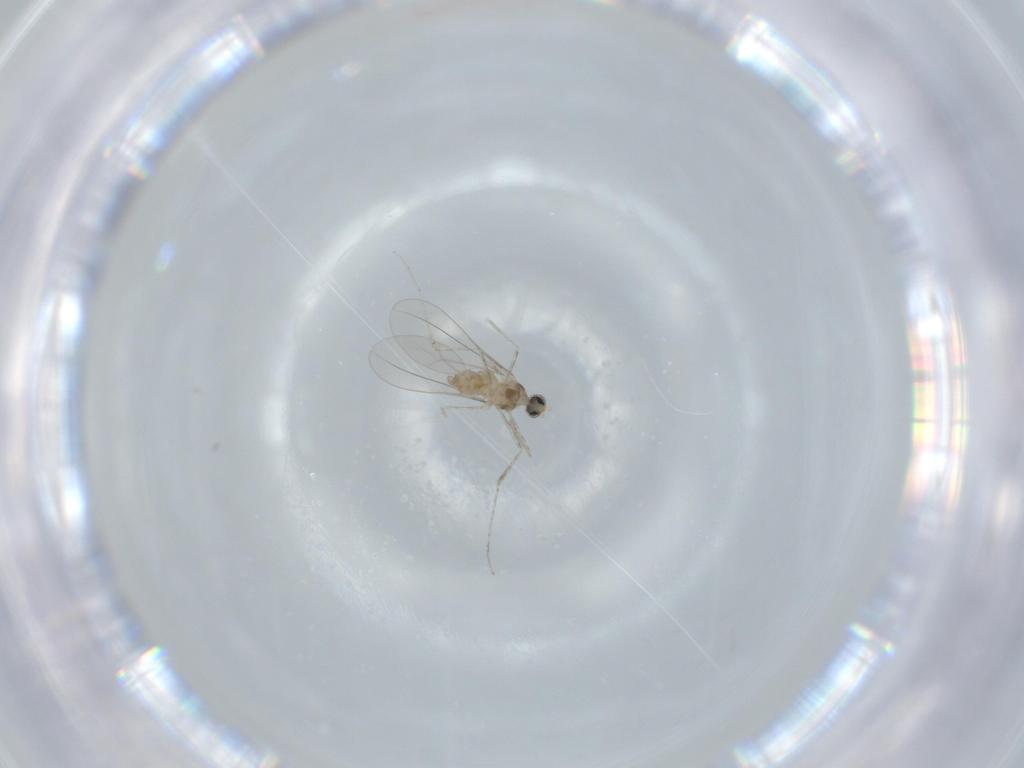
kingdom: Animalia
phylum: Arthropoda
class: Insecta
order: Diptera
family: Cecidomyiidae
